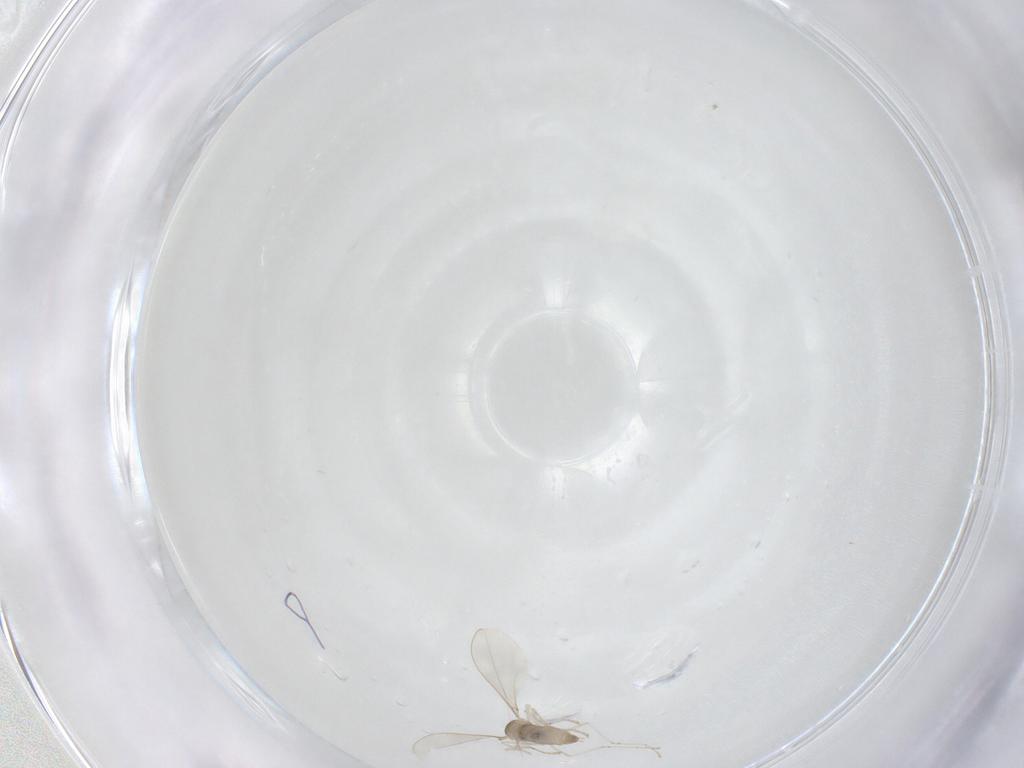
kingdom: Animalia
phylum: Arthropoda
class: Insecta
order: Diptera
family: Cecidomyiidae
